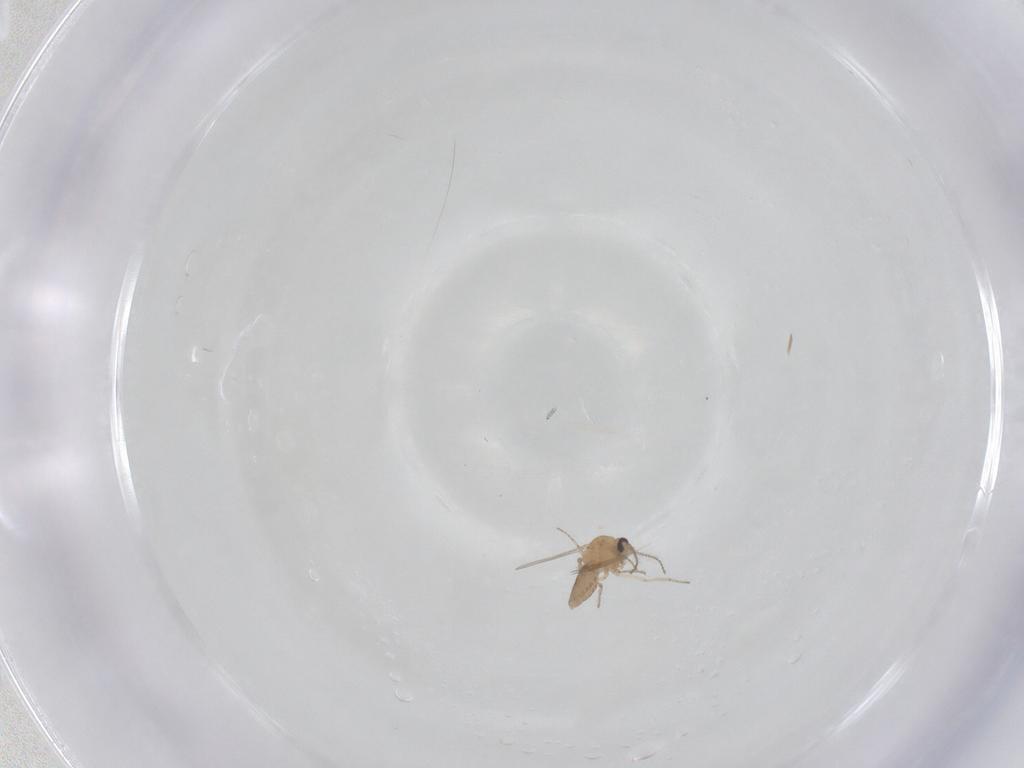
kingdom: Animalia
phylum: Arthropoda
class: Insecta
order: Diptera
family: Ceratopogonidae
